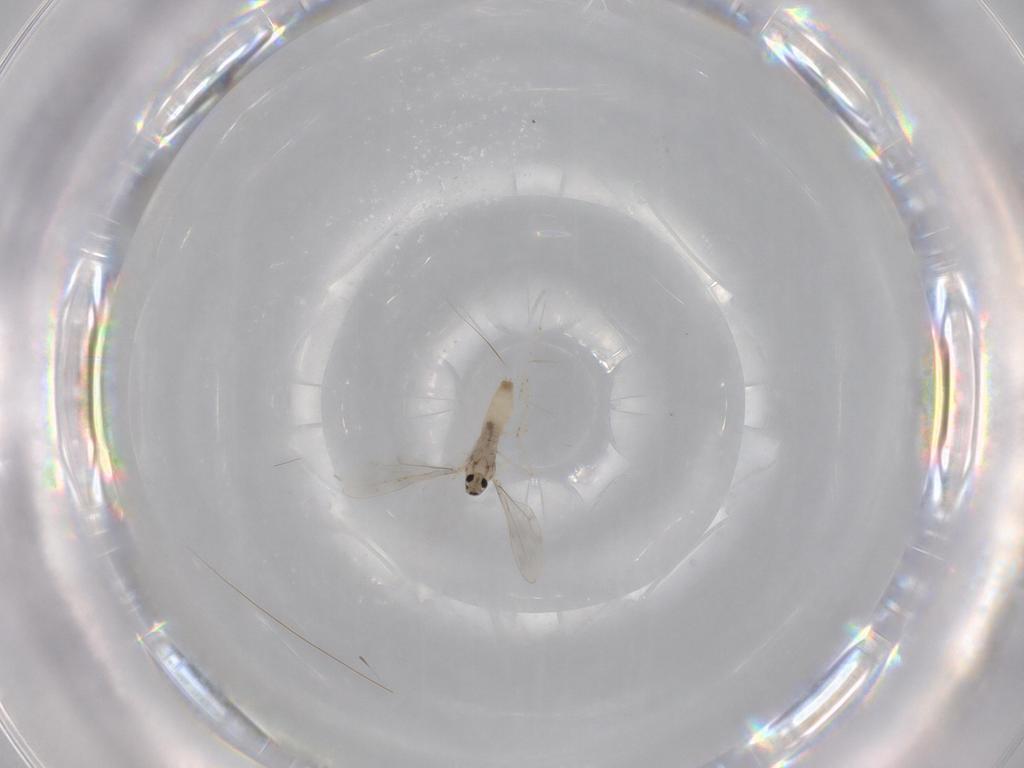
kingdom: Animalia
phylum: Arthropoda
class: Insecta
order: Diptera
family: Cecidomyiidae
